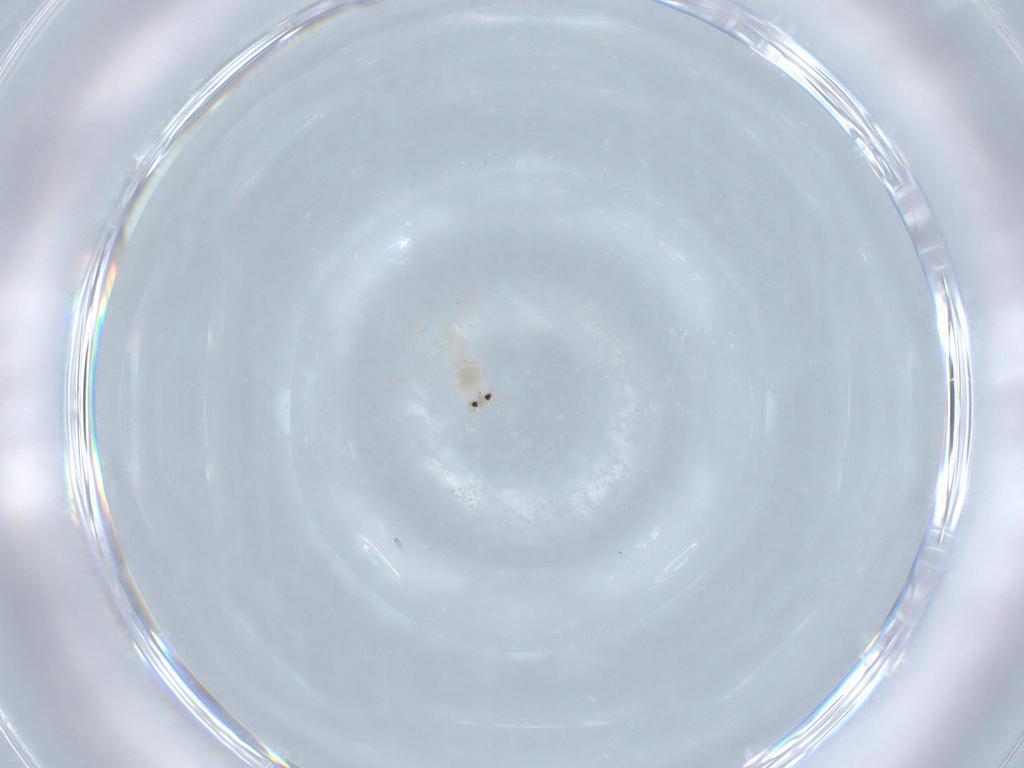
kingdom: Animalia
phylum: Arthropoda
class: Insecta
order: Hemiptera
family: Aleyrodidae
